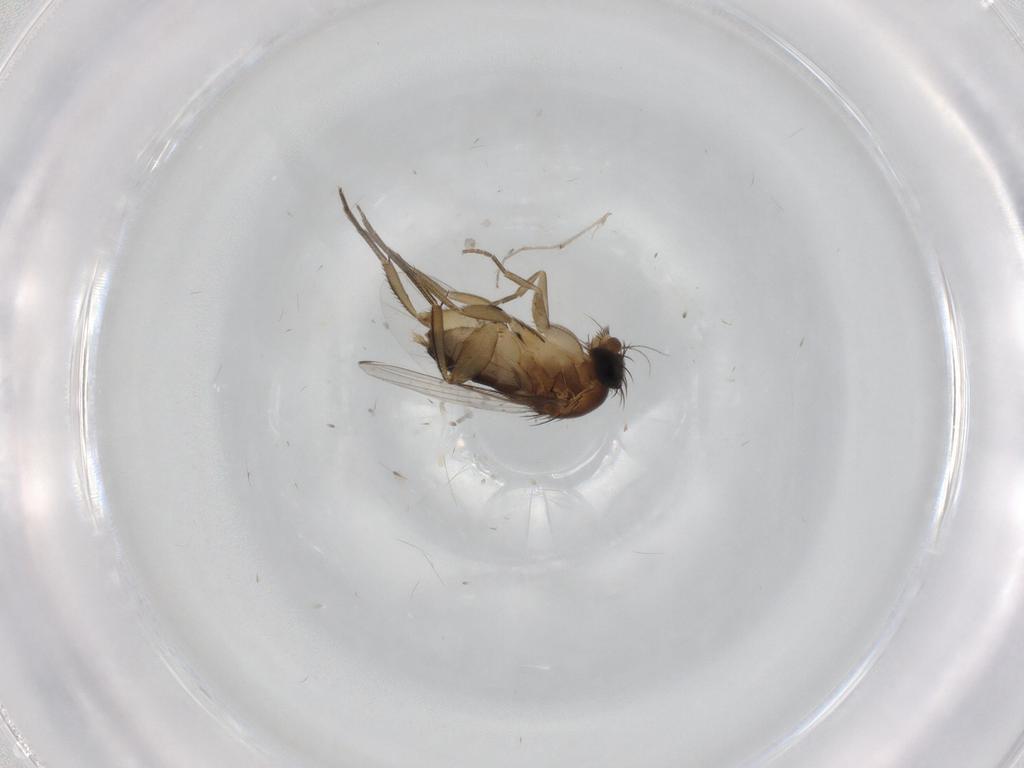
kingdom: Animalia
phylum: Arthropoda
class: Insecta
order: Diptera
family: Phoridae
